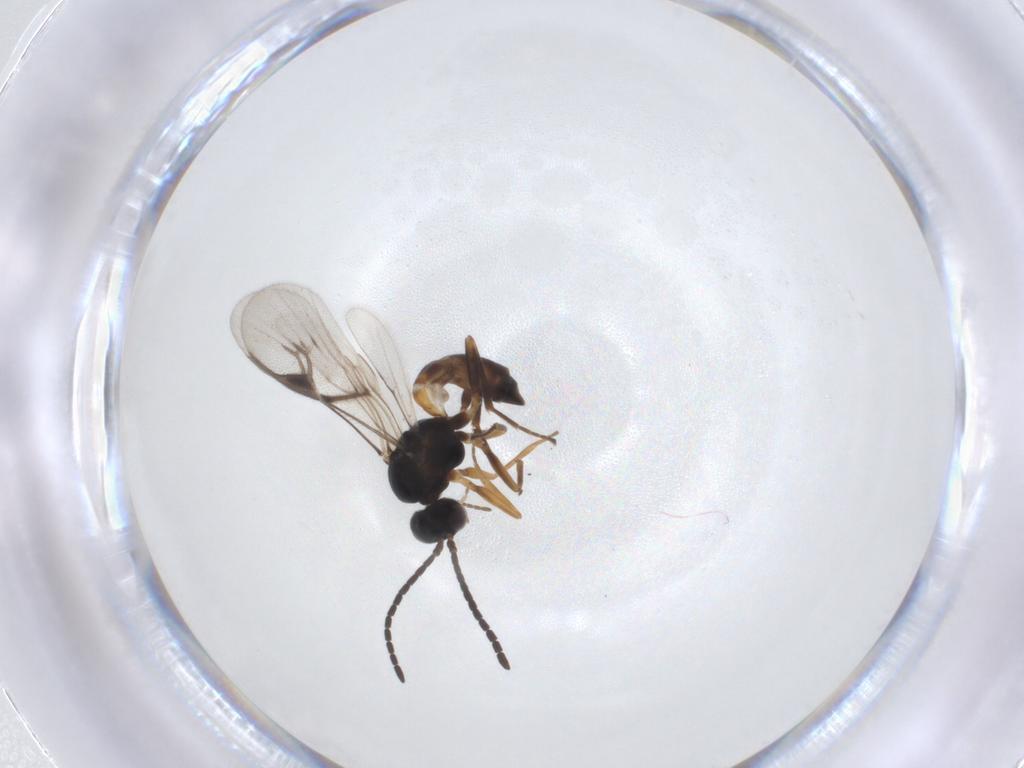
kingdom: Animalia
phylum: Arthropoda
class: Insecta
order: Hymenoptera
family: Braconidae
